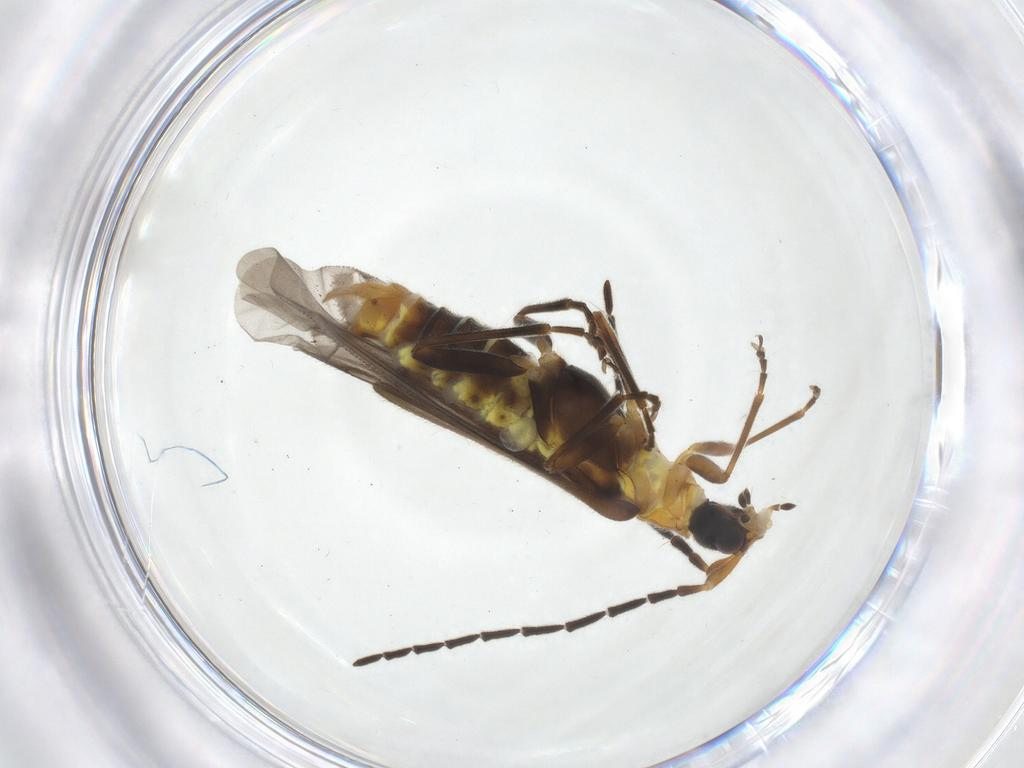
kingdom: Animalia
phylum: Arthropoda
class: Insecta
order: Coleoptera
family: Cantharidae
